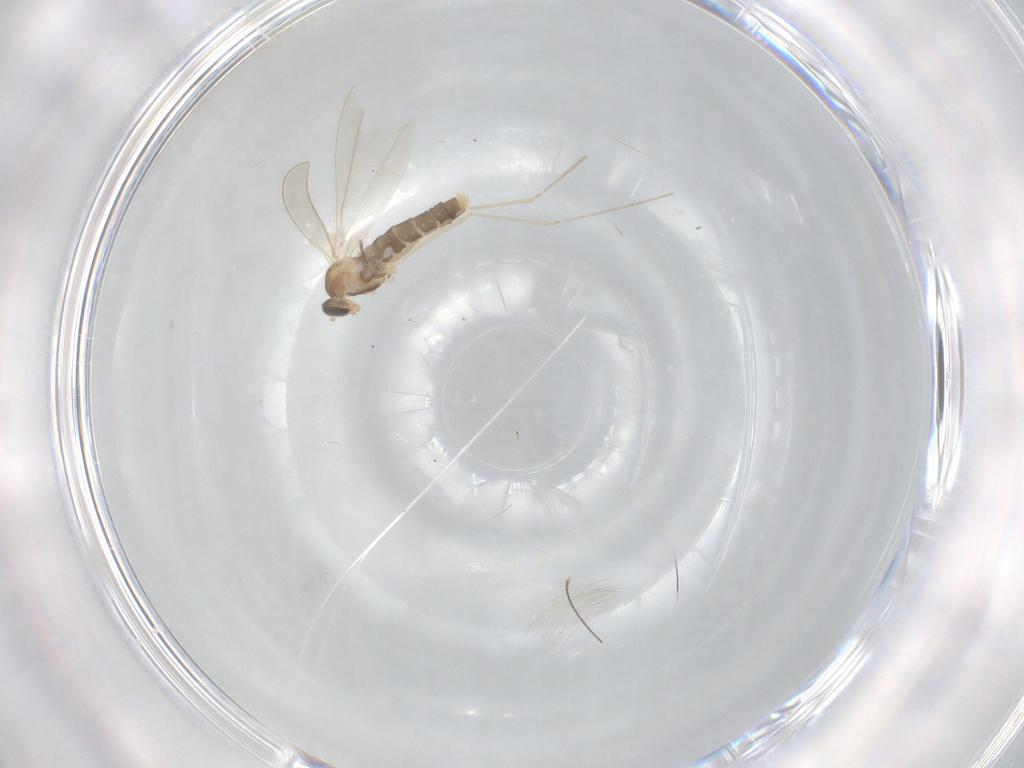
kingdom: Animalia
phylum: Arthropoda
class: Insecta
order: Diptera
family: Cecidomyiidae
